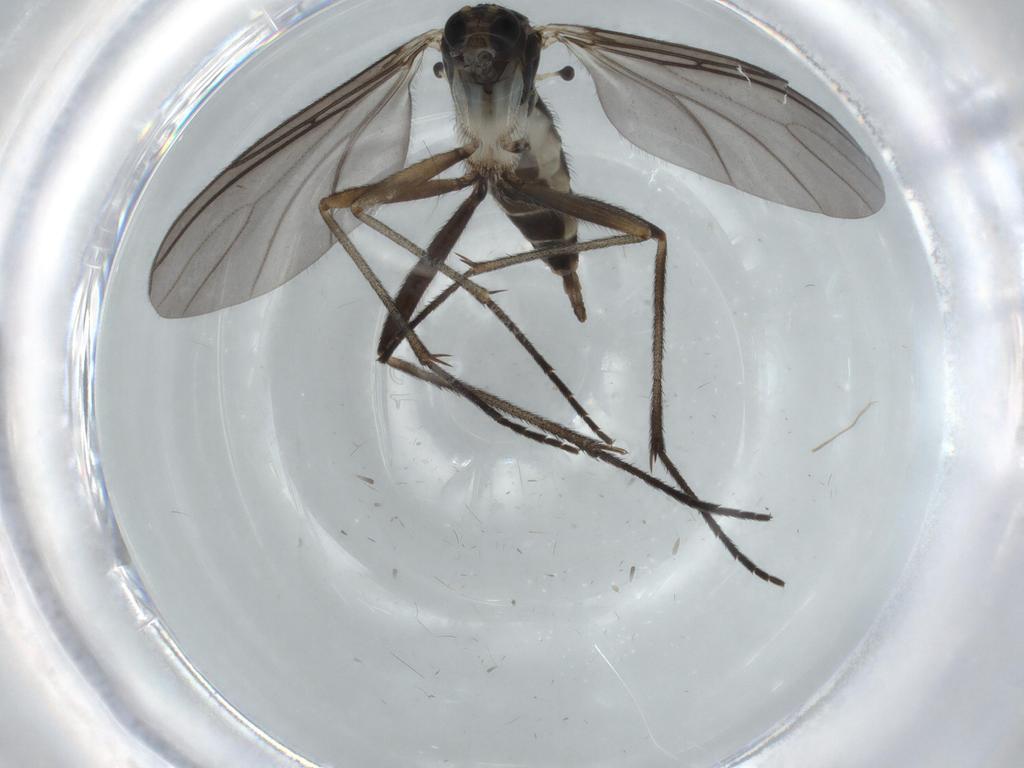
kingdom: Animalia
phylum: Arthropoda
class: Insecta
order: Diptera
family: Sciaridae
